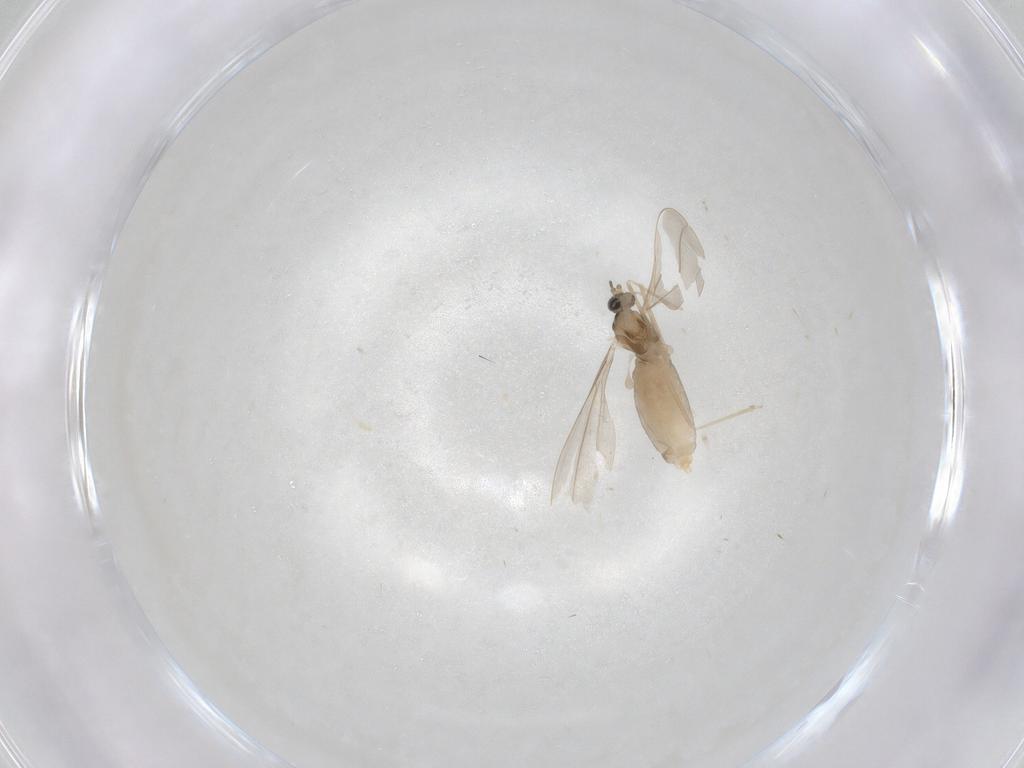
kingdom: Animalia
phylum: Arthropoda
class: Insecta
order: Diptera
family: Cecidomyiidae
